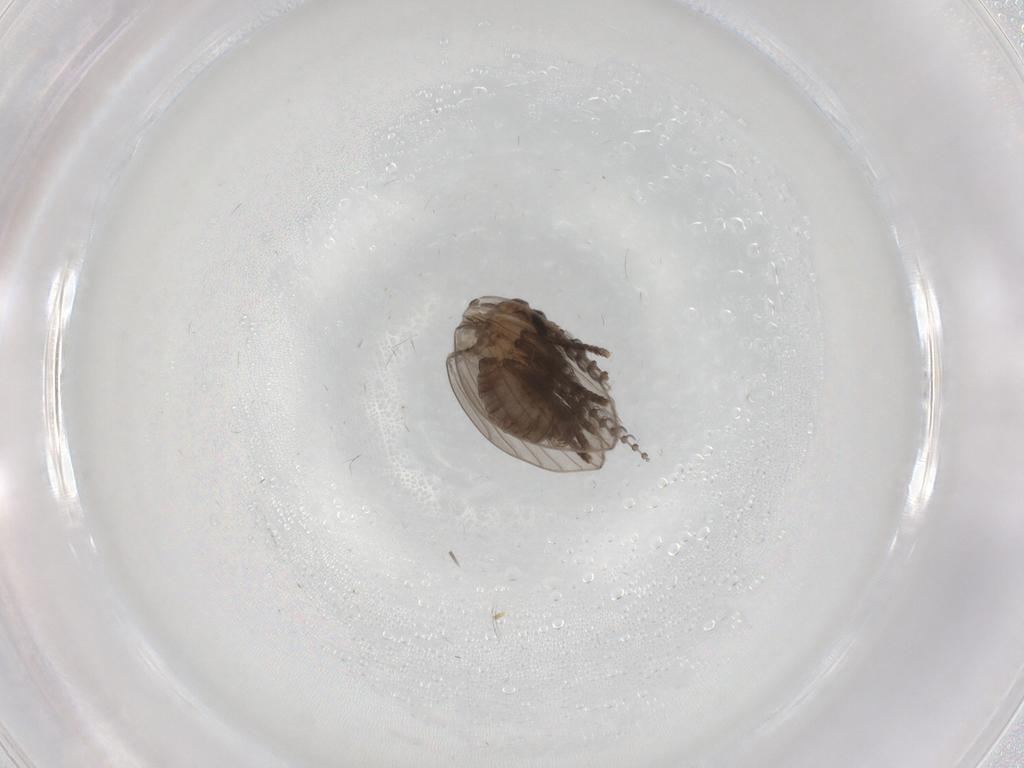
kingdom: Animalia
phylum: Arthropoda
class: Insecta
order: Diptera
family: Psychodidae
